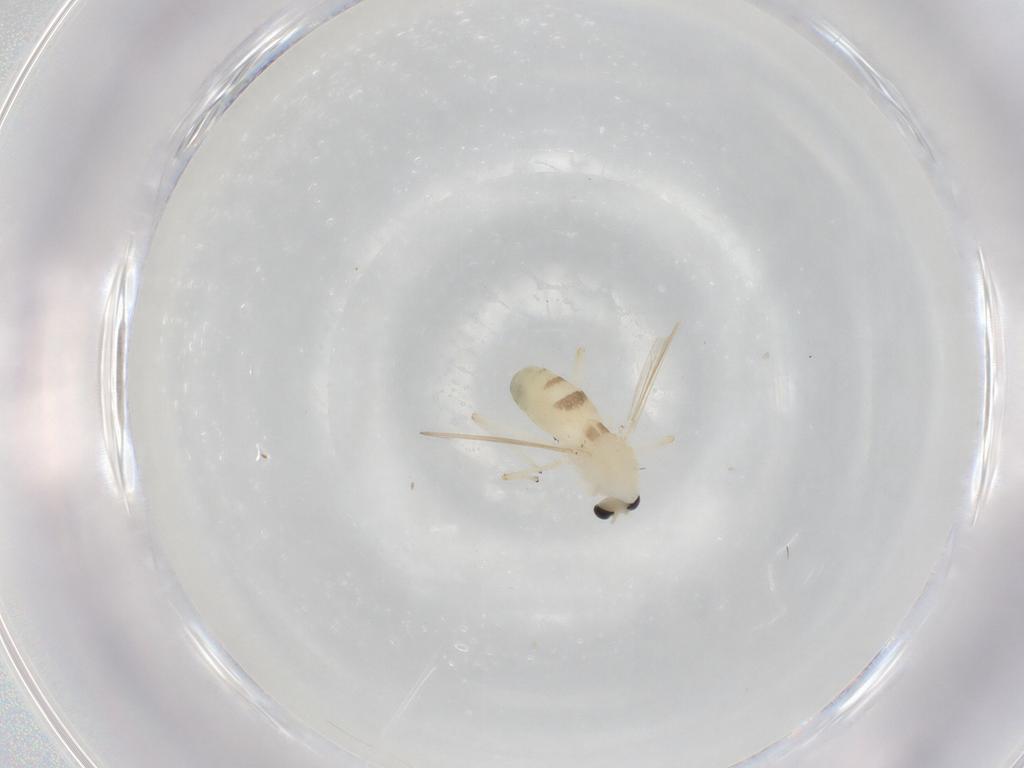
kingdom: Animalia
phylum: Arthropoda
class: Insecta
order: Diptera
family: Chironomidae
